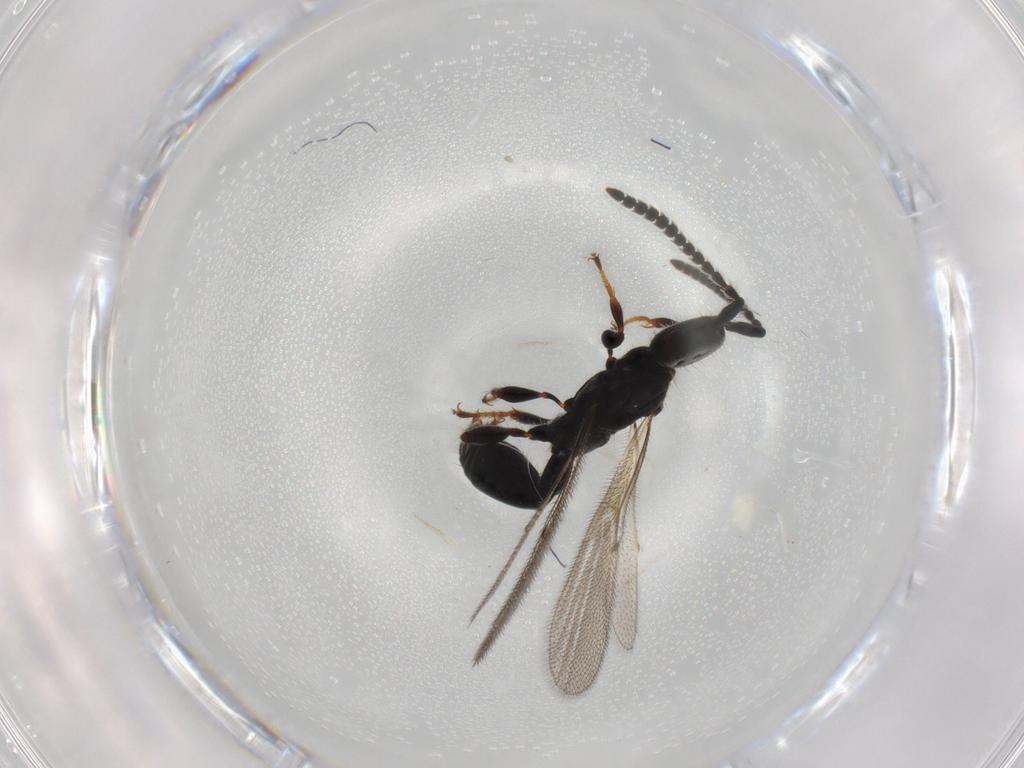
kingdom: Animalia
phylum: Arthropoda
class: Insecta
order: Hymenoptera
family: Diapriidae
